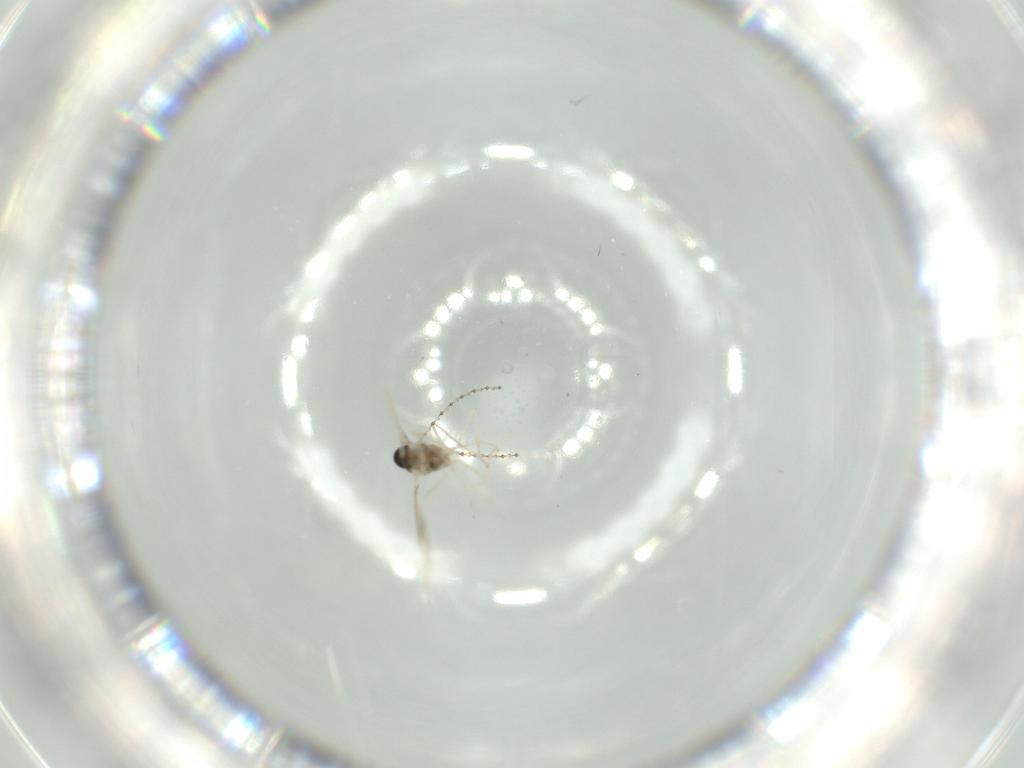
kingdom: Animalia
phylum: Arthropoda
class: Insecta
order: Diptera
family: Cecidomyiidae
